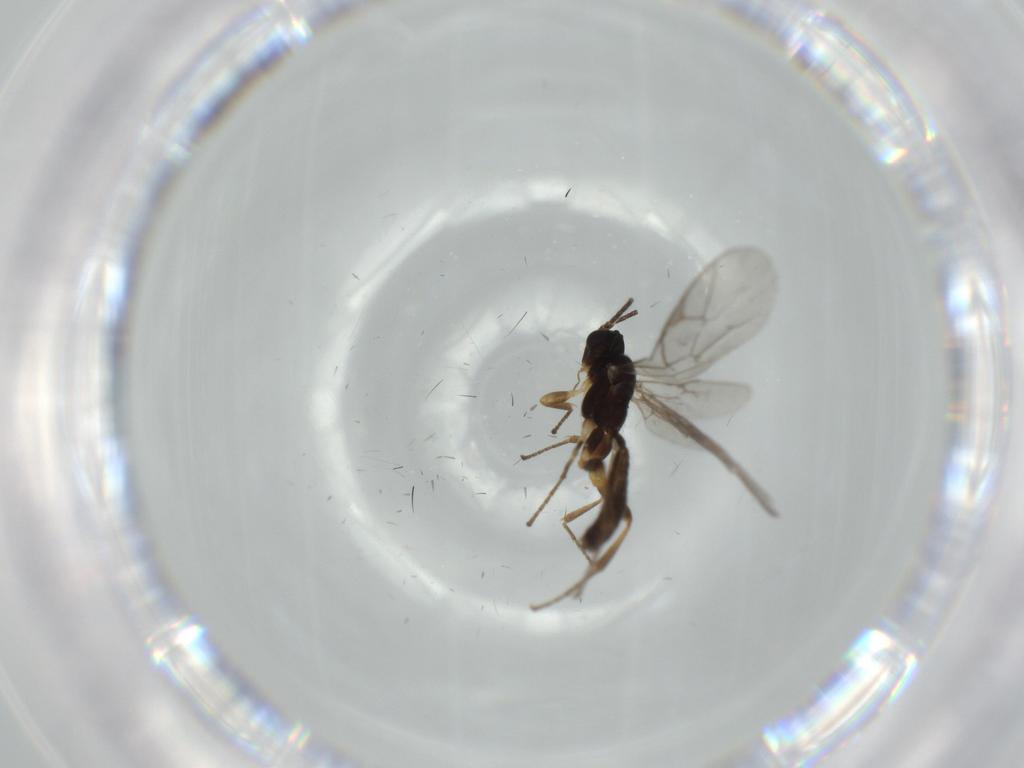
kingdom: Animalia
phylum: Arthropoda
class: Insecta
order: Hymenoptera
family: Ichneumonidae
